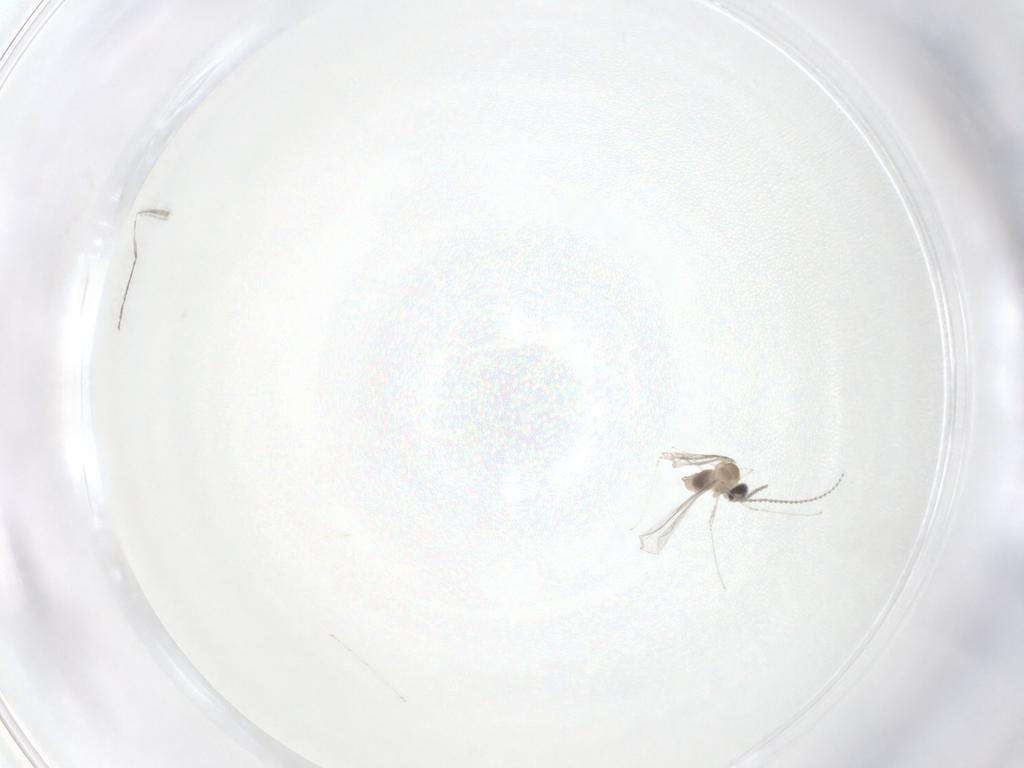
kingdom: Animalia
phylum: Arthropoda
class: Insecta
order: Diptera
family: Cecidomyiidae
